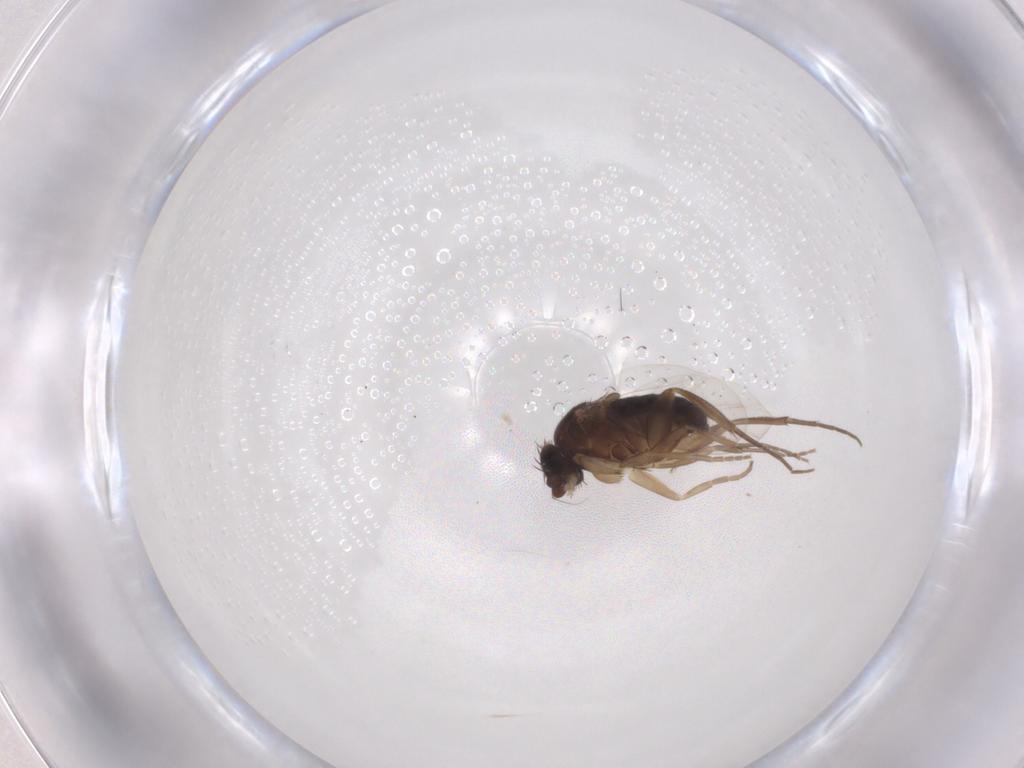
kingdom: Animalia
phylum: Arthropoda
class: Insecta
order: Diptera
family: Phoridae
